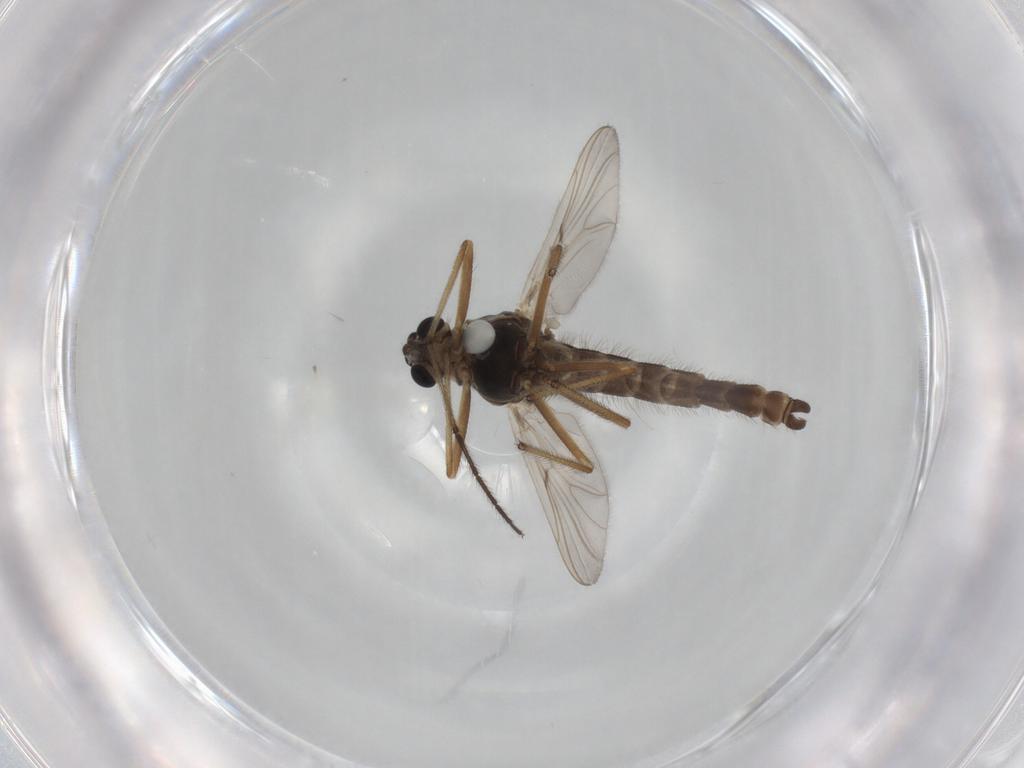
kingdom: Animalia
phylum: Arthropoda
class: Insecta
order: Diptera
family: Chironomidae
